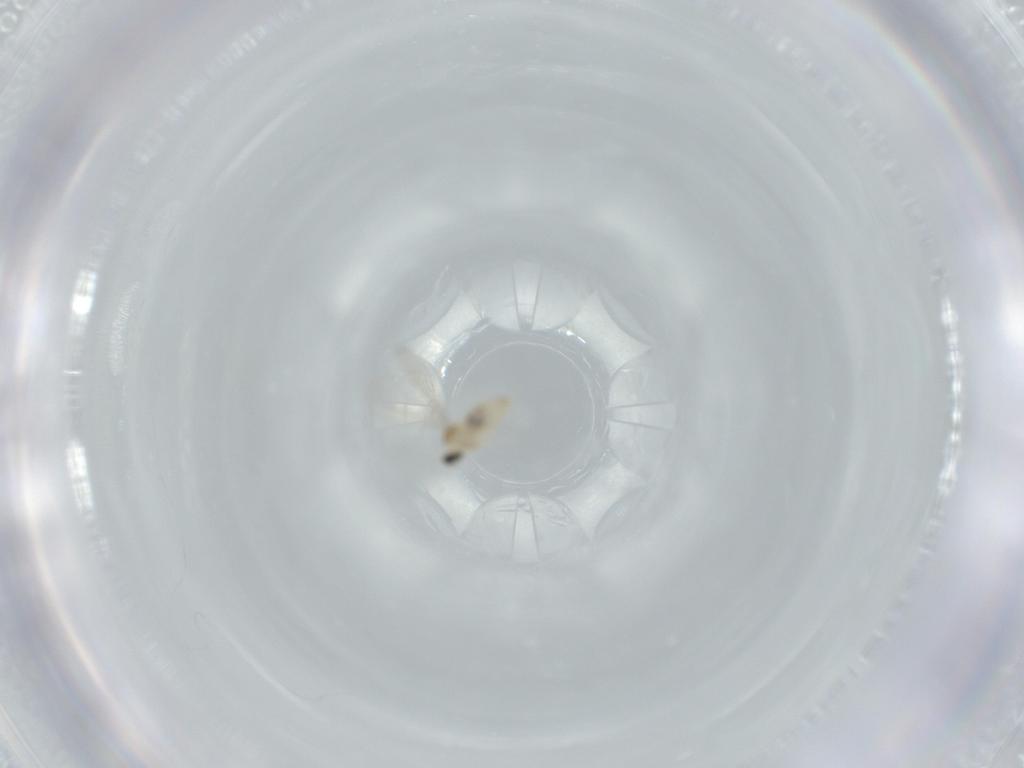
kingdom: Animalia
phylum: Arthropoda
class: Insecta
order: Diptera
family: Cecidomyiidae
